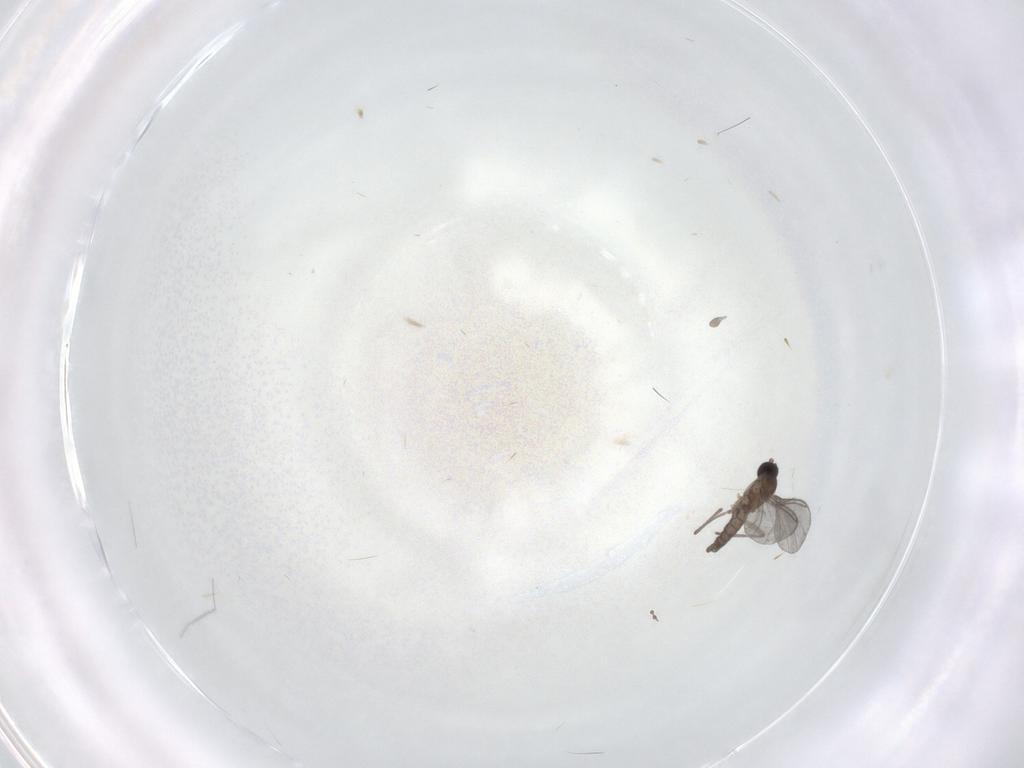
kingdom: Animalia
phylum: Arthropoda
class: Insecta
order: Diptera
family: Sciaridae
